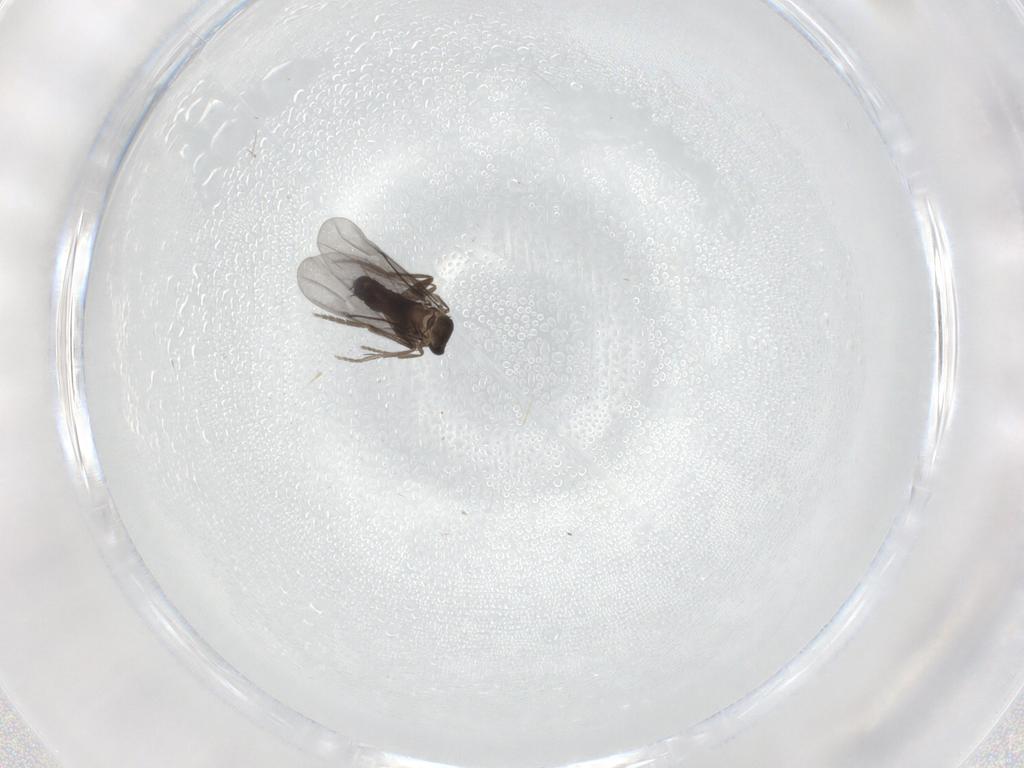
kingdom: Animalia
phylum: Arthropoda
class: Insecta
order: Diptera
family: Phoridae
